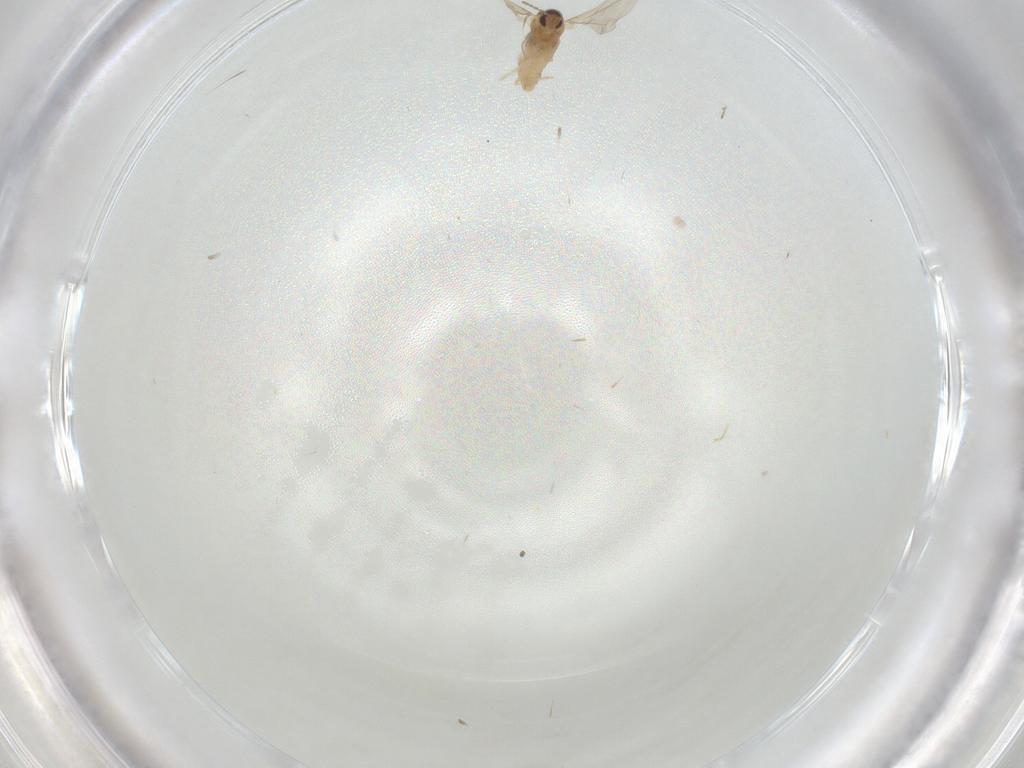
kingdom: Animalia
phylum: Arthropoda
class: Insecta
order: Diptera
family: Cecidomyiidae
